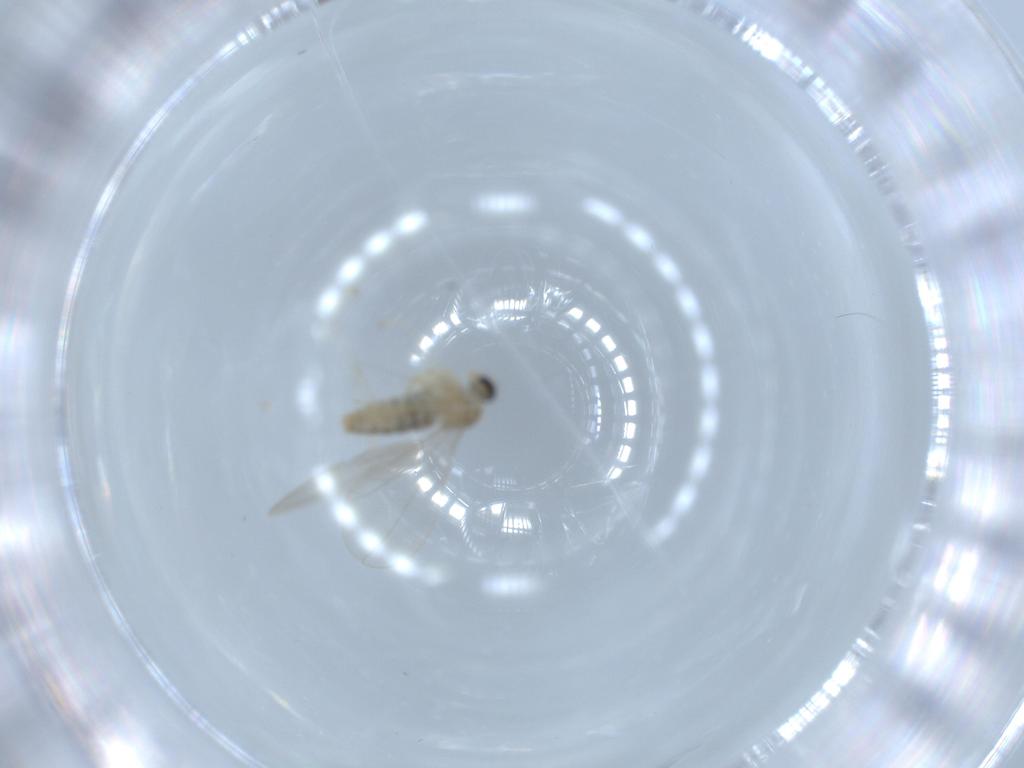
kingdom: Animalia
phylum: Arthropoda
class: Insecta
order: Diptera
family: Cecidomyiidae
